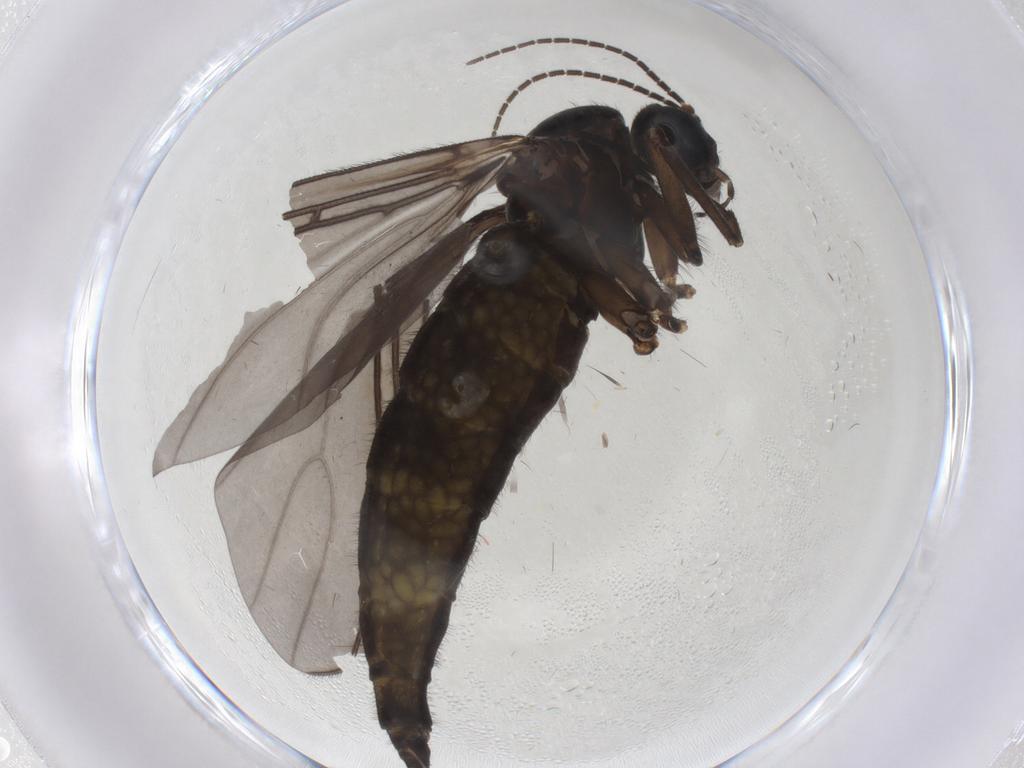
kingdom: Animalia
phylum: Arthropoda
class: Insecta
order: Diptera
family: Sciaridae
